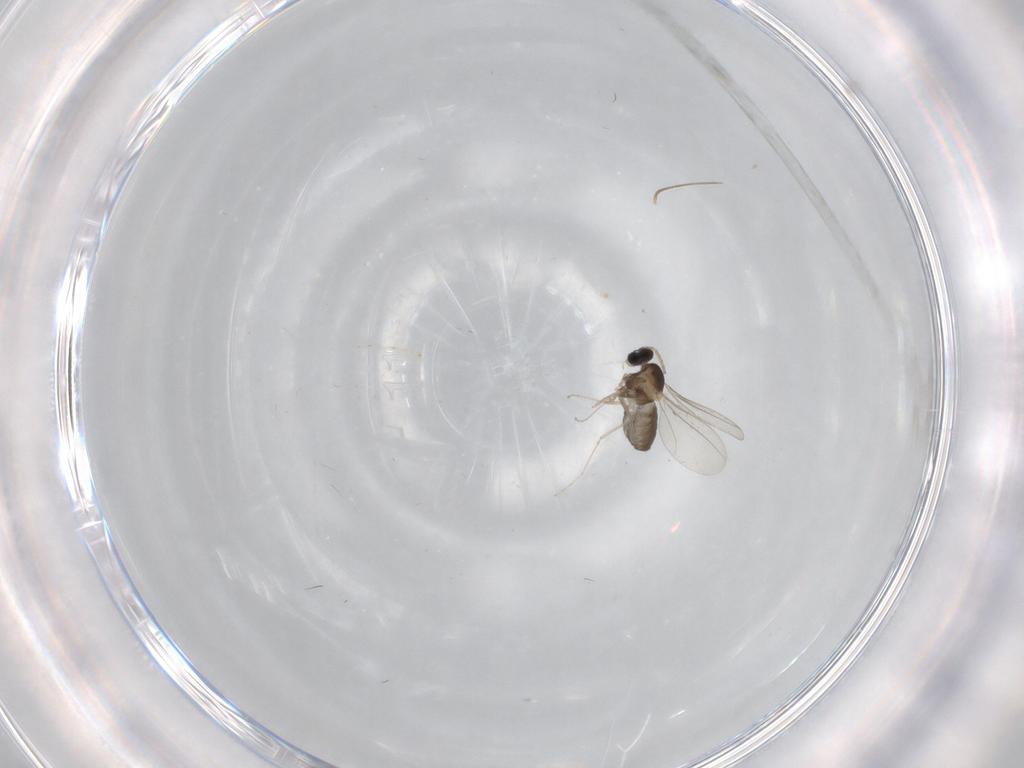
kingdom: Animalia
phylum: Arthropoda
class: Insecta
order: Diptera
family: Cecidomyiidae
